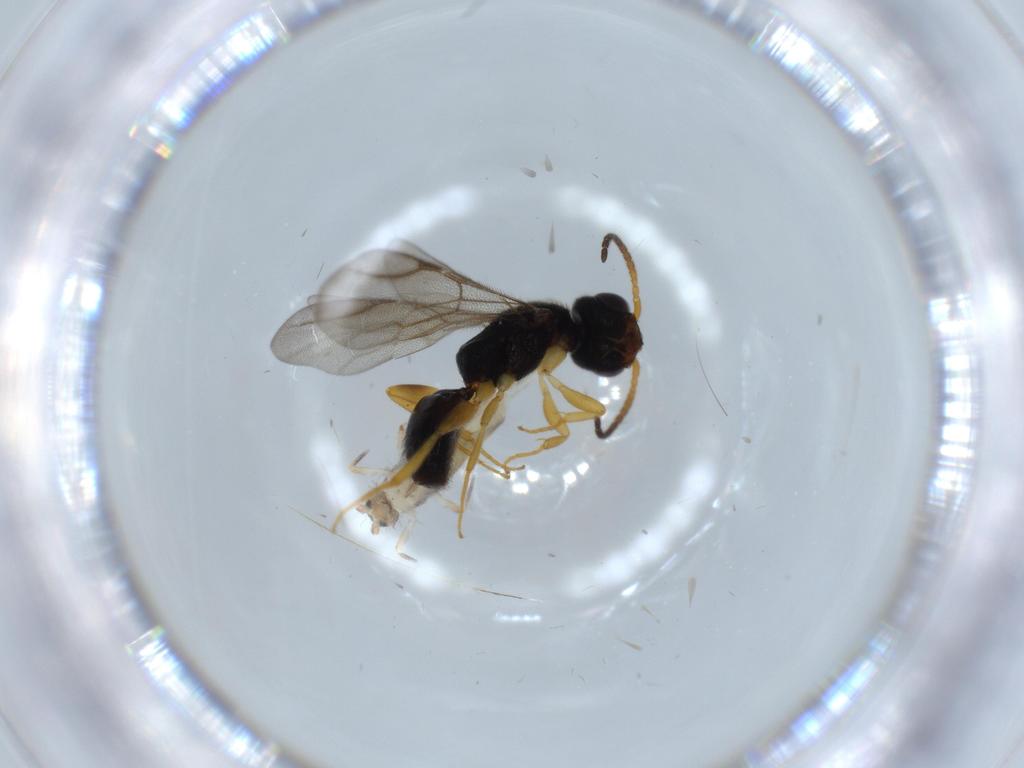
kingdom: Animalia
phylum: Arthropoda
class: Insecta
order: Hymenoptera
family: Bethylidae
